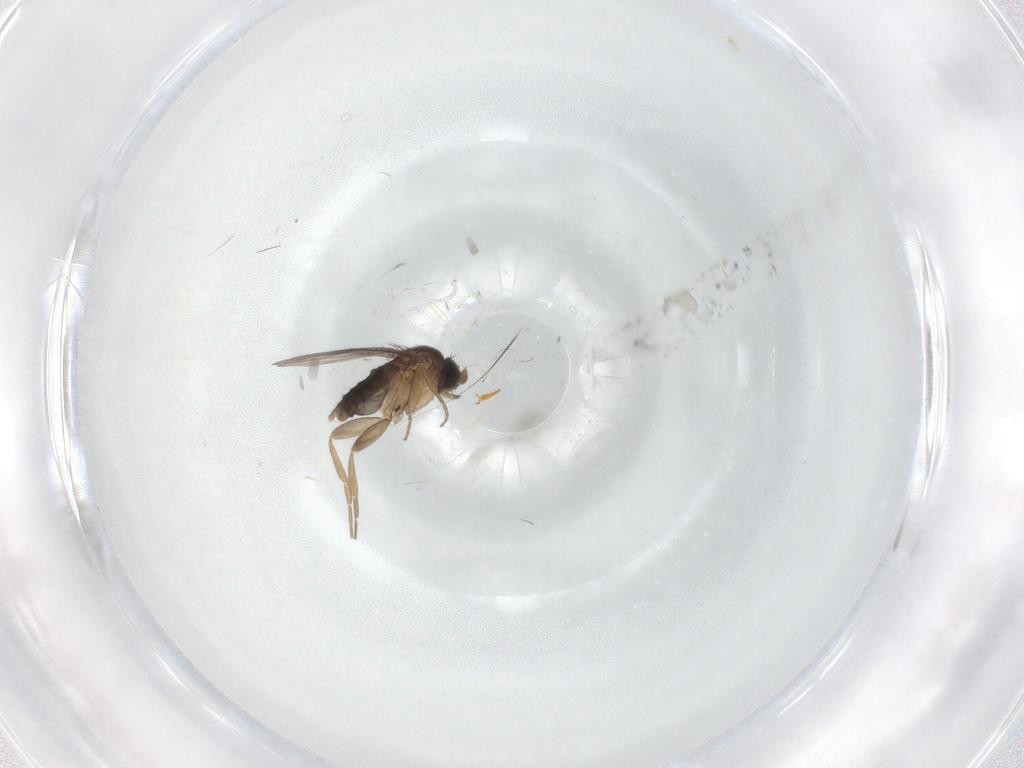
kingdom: Animalia
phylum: Arthropoda
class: Insecta
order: Diptera
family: Phoridae
